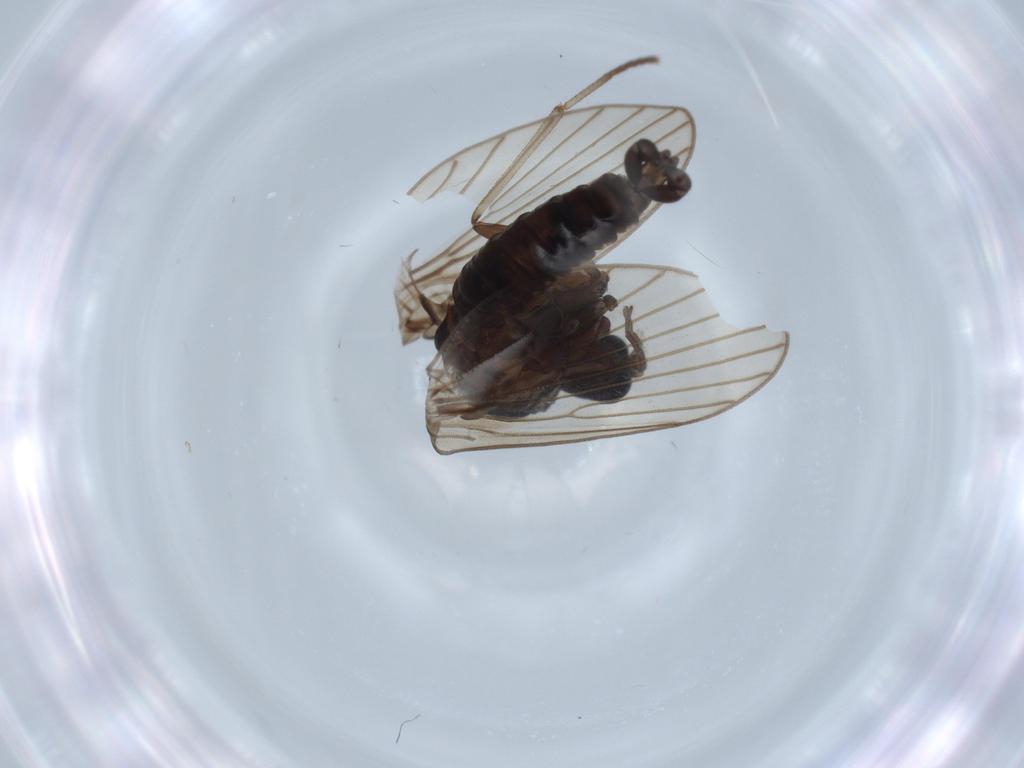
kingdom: Animalia
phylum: Arthropoda
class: Insecta
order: Diptera
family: Psychodidae
